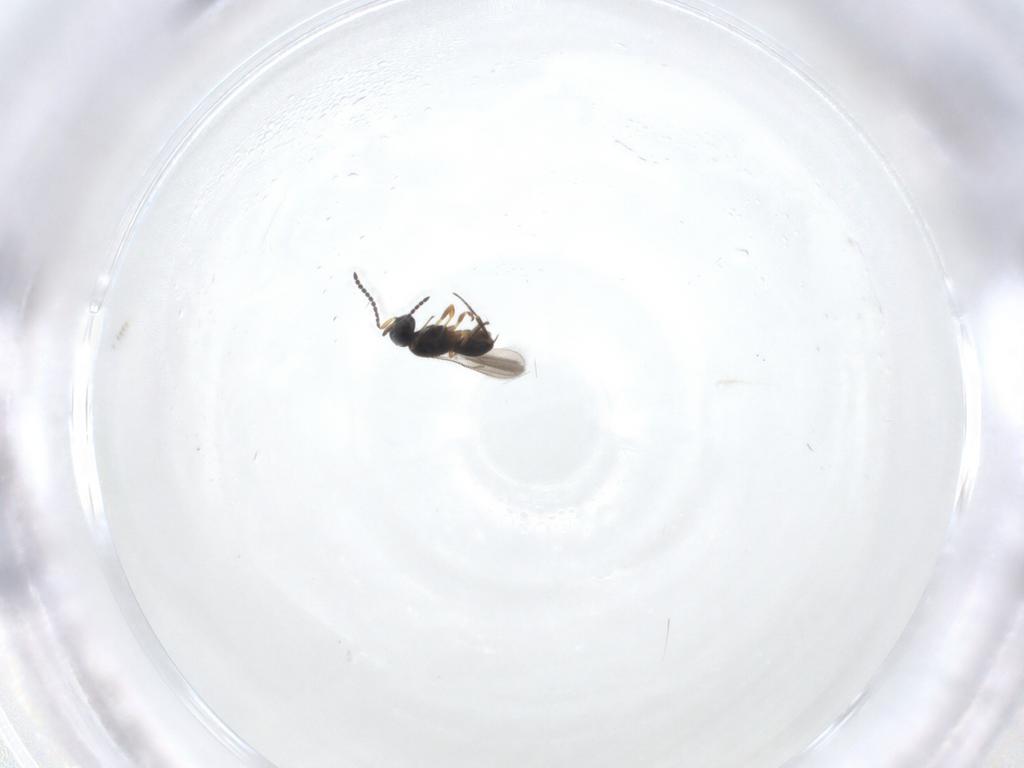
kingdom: Animalia
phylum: Arthropoda
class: Insecta
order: Hymenoptera
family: Scelionidae
